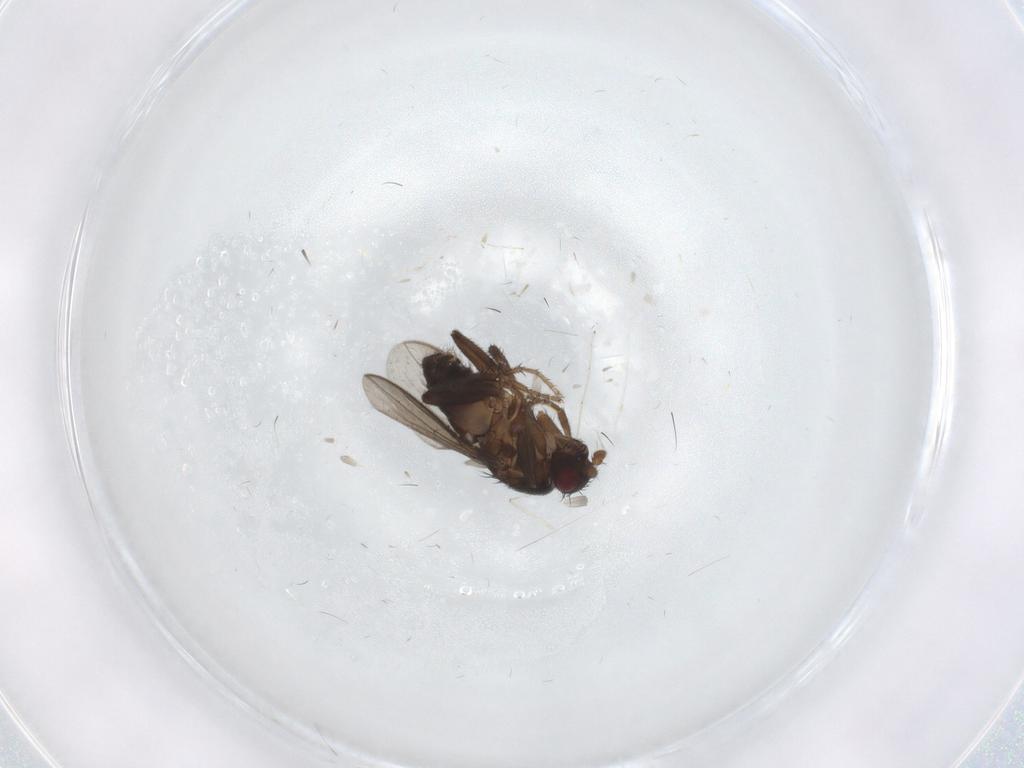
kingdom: Animalia
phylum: Arthropoda
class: Insecta
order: Diptera
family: Sphaeroceridae
